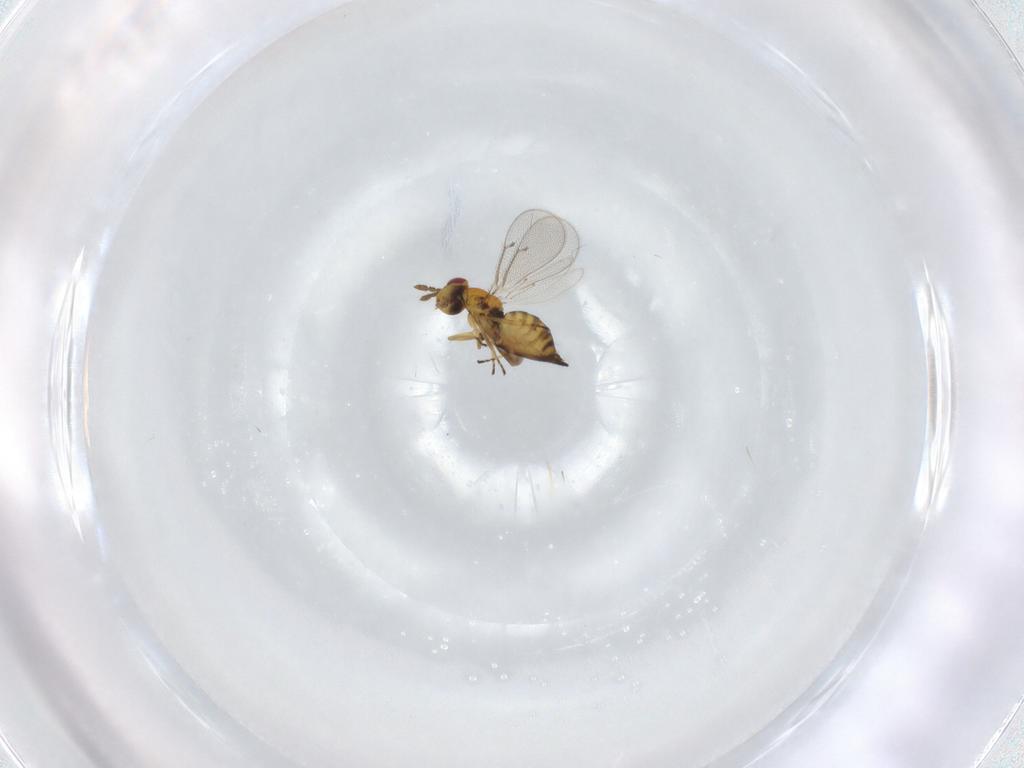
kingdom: Animalia
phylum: Arthropoda
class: Insecta
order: Hymenoptera
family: Eulophidae
